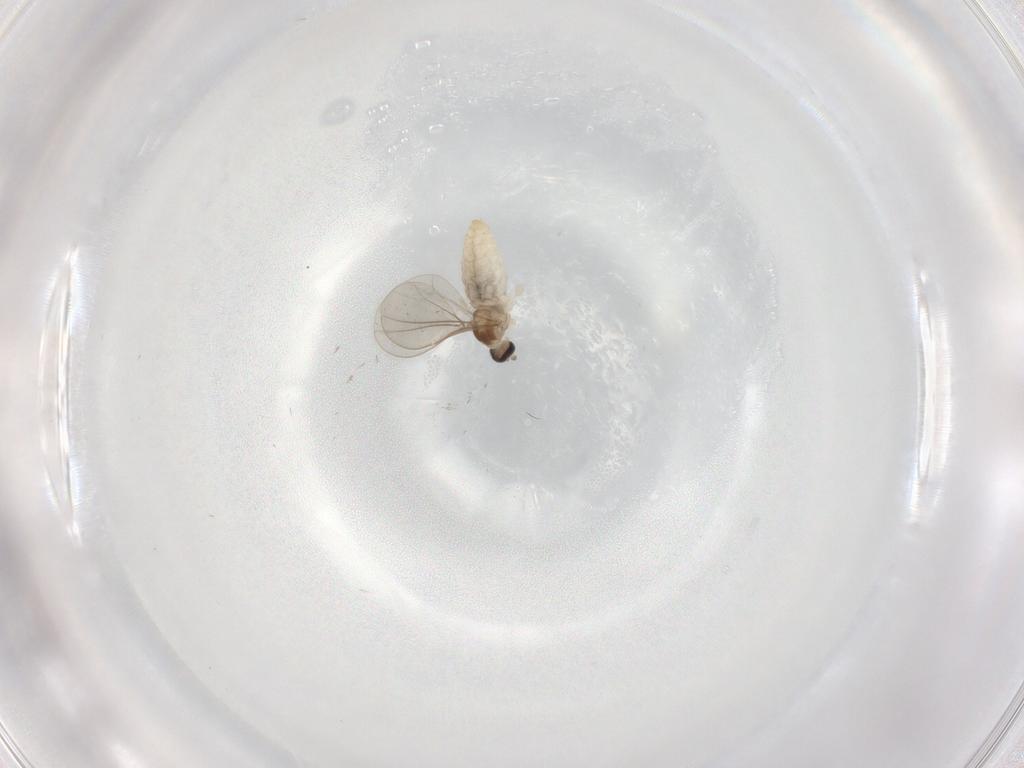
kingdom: Animalia
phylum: Arthropoda
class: Insecta
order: Diptera
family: Cecidomyiidae
